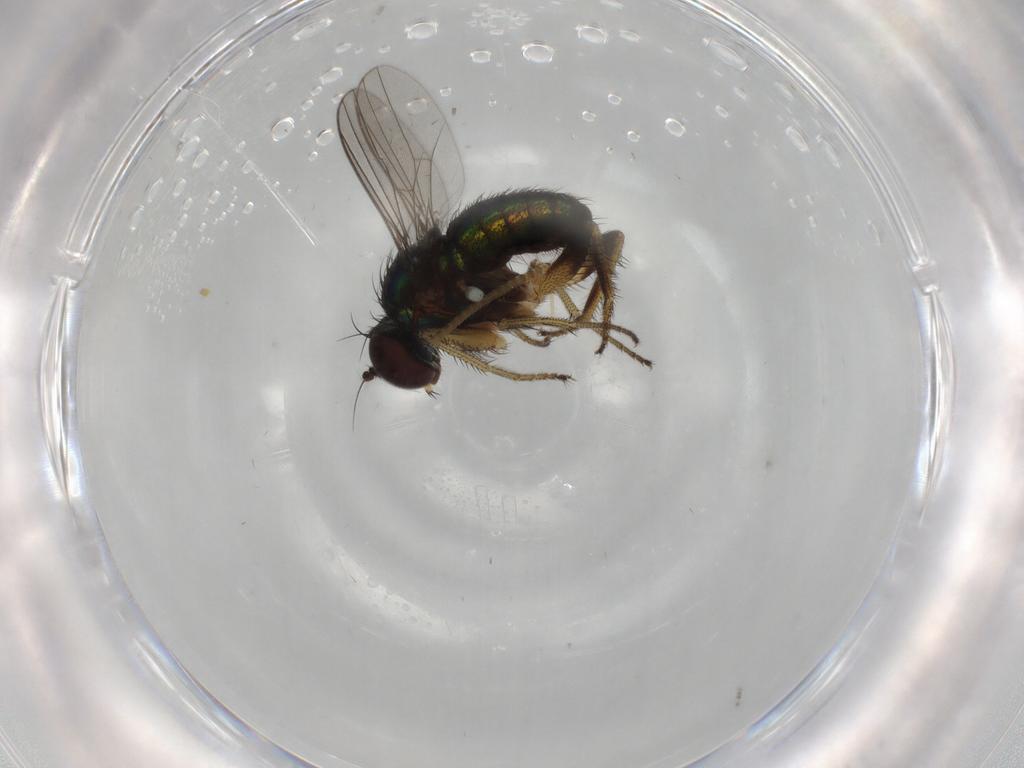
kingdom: Animalia
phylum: Arthropoda
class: Insecta
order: Diptera
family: Dolichopodidae
